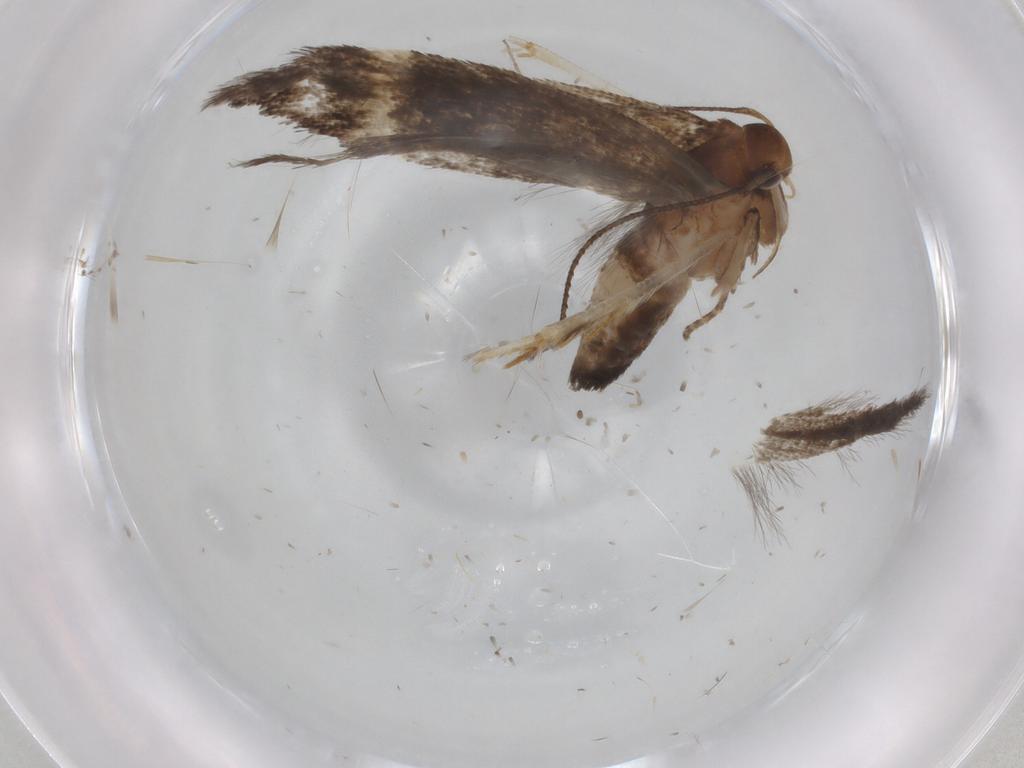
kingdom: Animalia
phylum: Arthropoda
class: Insecta
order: Lepidoptera
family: Gelechiidae
